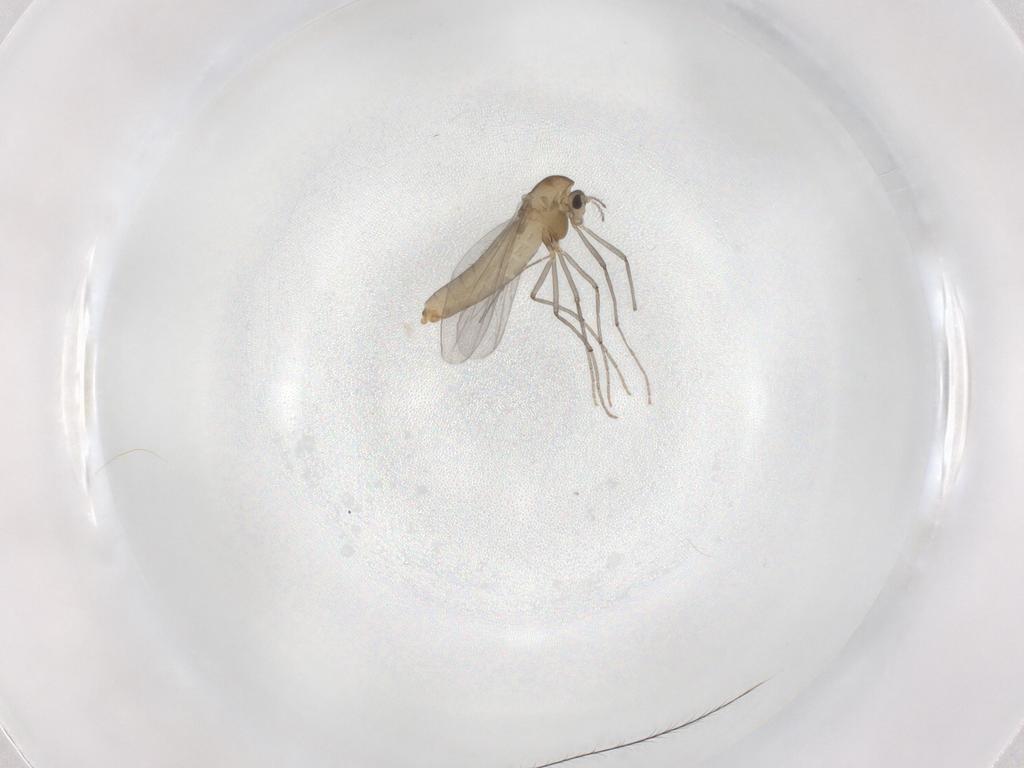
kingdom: Animalia
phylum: Arthropoda
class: Insecta
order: Diptera
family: Chironomidae
